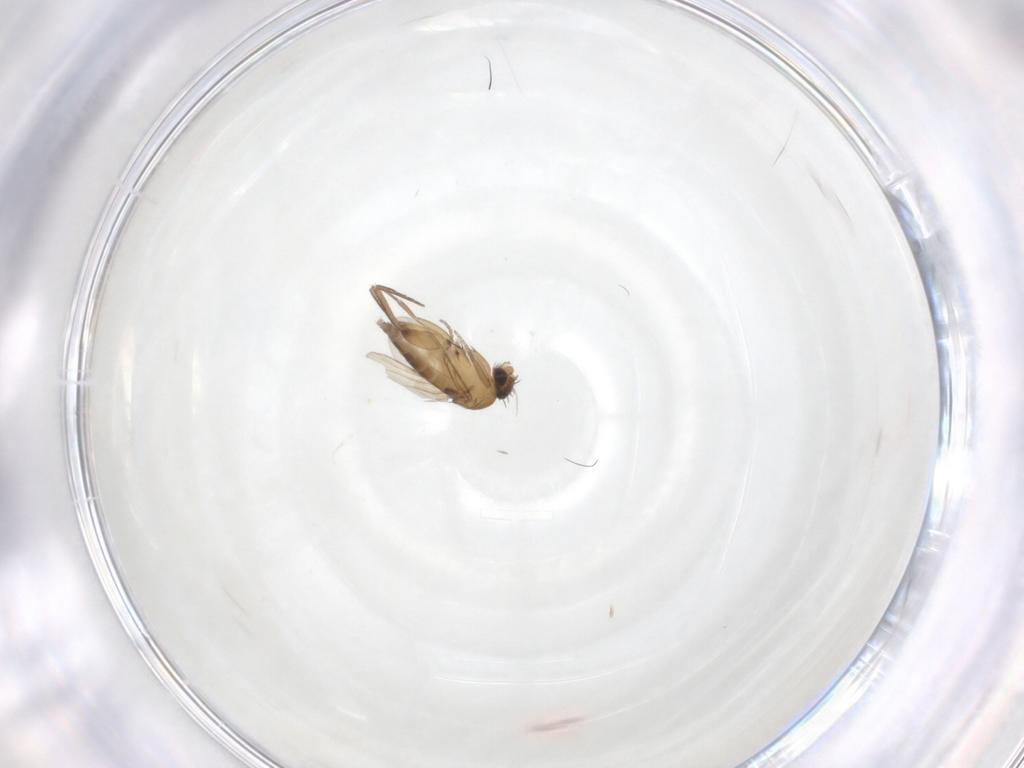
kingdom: Animalia
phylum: Arthropoda
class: Insecta
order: Diptera
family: Phoridae
